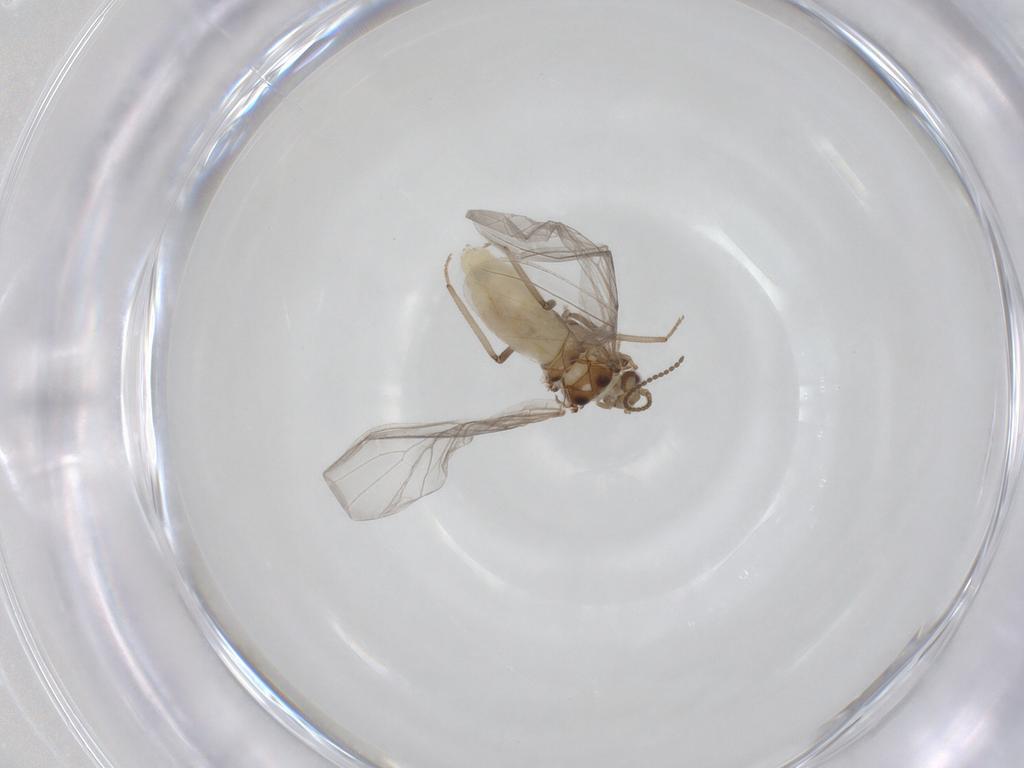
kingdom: Animalia
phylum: Arthropoda
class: Insecta
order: Neuroptera
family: Coniopterygidae
